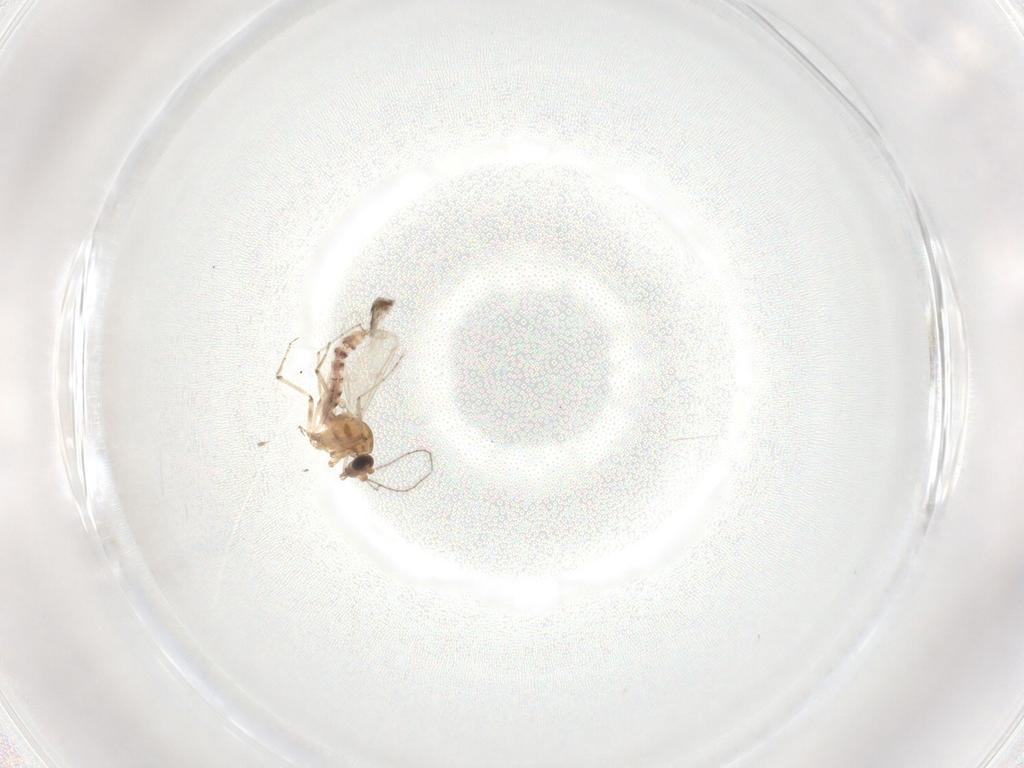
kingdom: Animalia
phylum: Arthropoda
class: Insecta
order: Diptera
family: Ceratopogonidae
